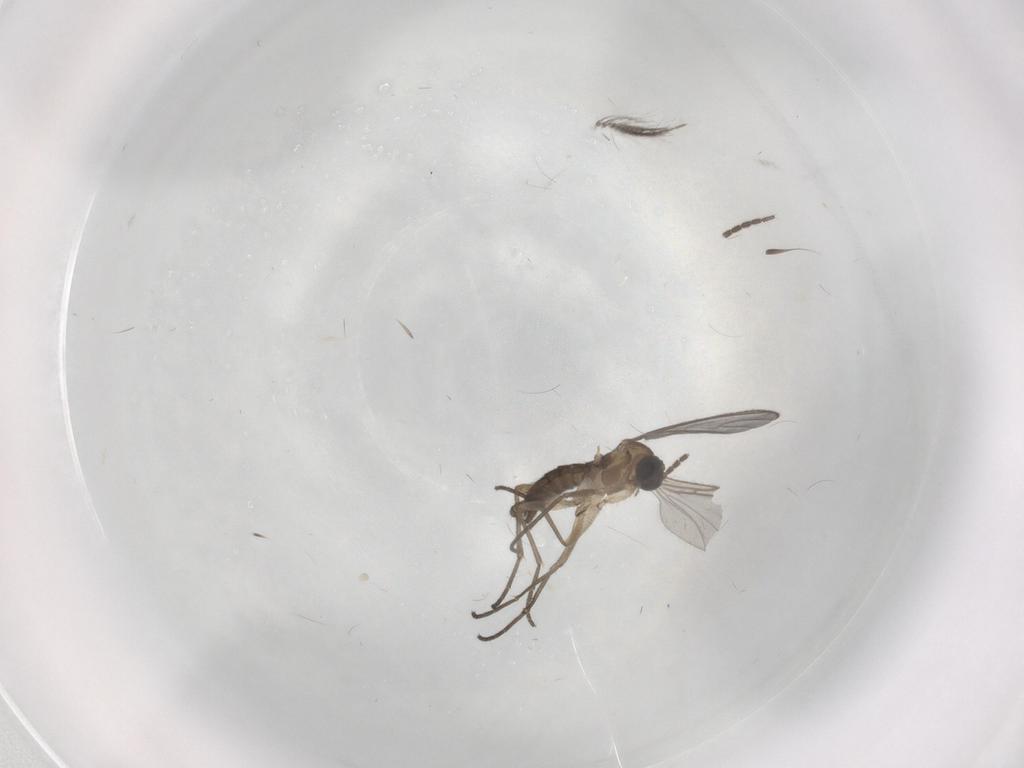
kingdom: Animalia
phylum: Arthropoda
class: Insecta
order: Diptera
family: Sciaridae
